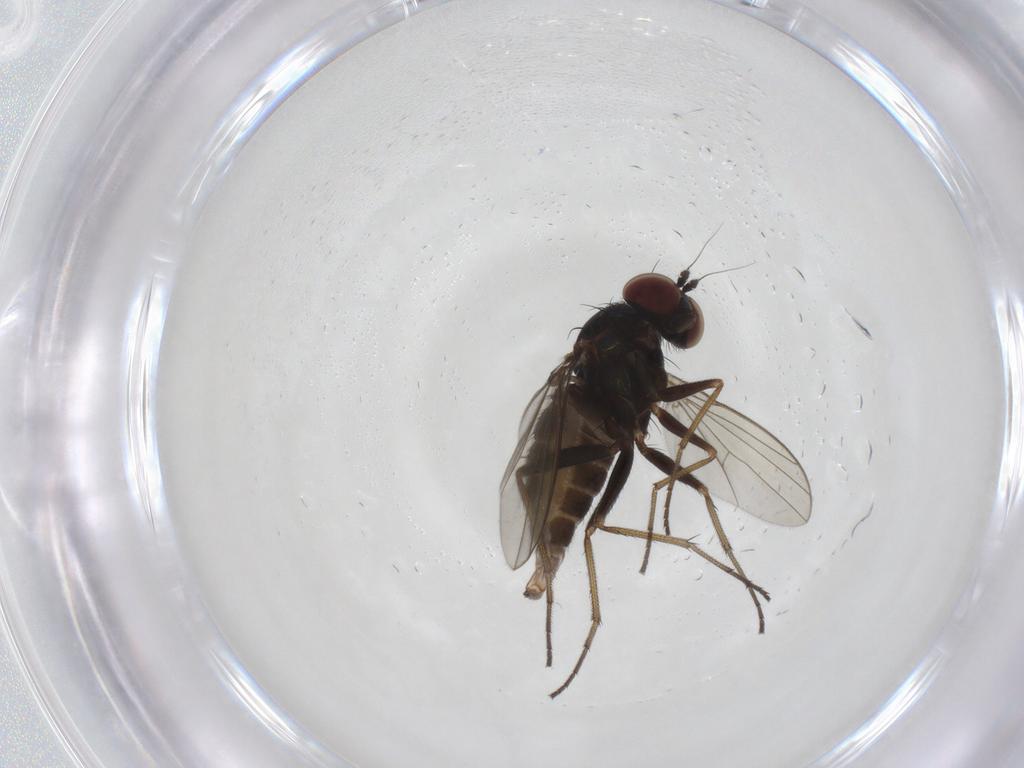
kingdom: Animalia
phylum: Arthropoda
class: Insecta
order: Diptera
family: Dolichopodidae
